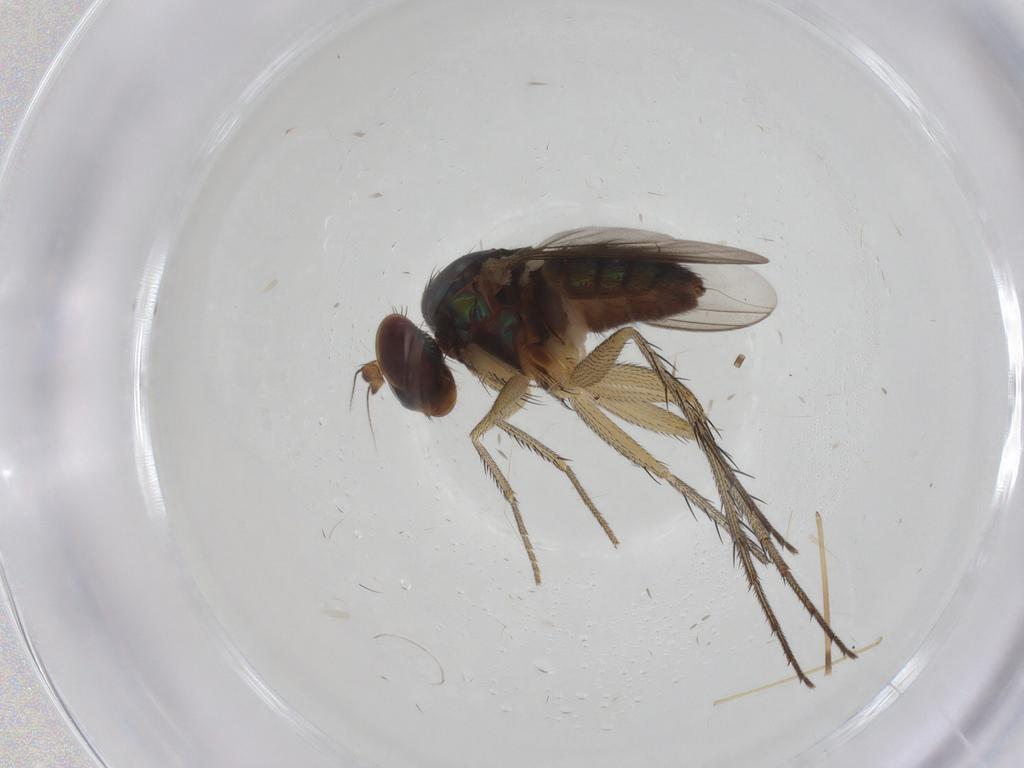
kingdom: Animalia
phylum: Arthropoda
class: Insecta
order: Diptera
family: Dolichopodidae
